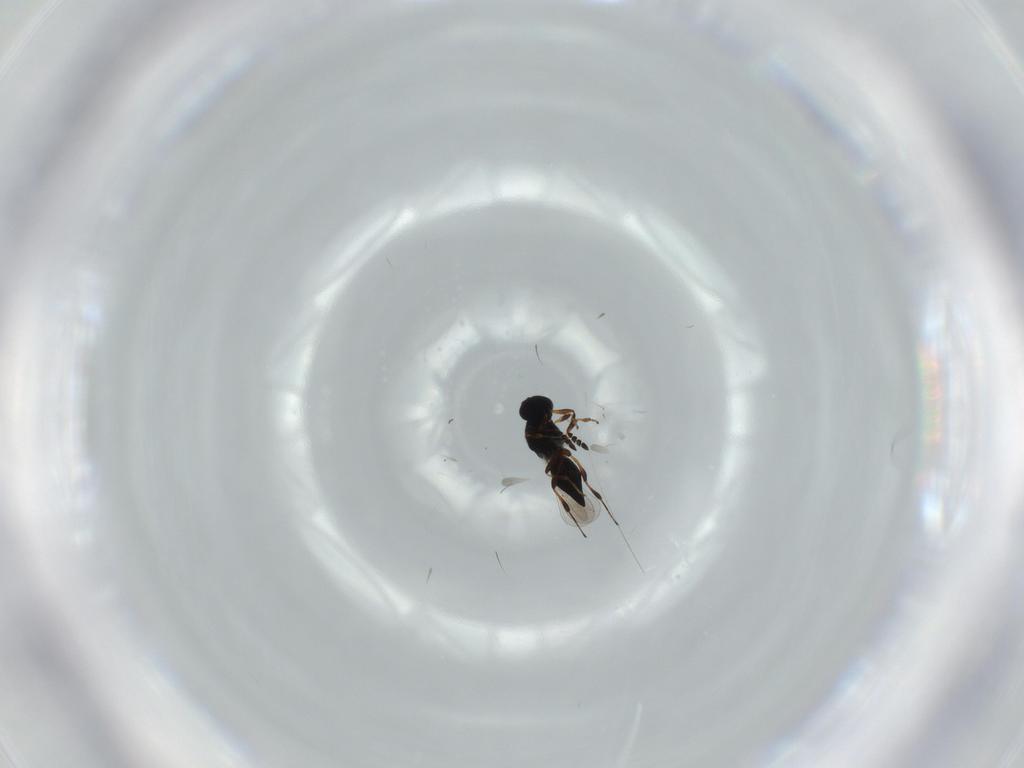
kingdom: Animalia
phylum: Arthropoda
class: Insecta
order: Hymenoptera
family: Platygastridae
